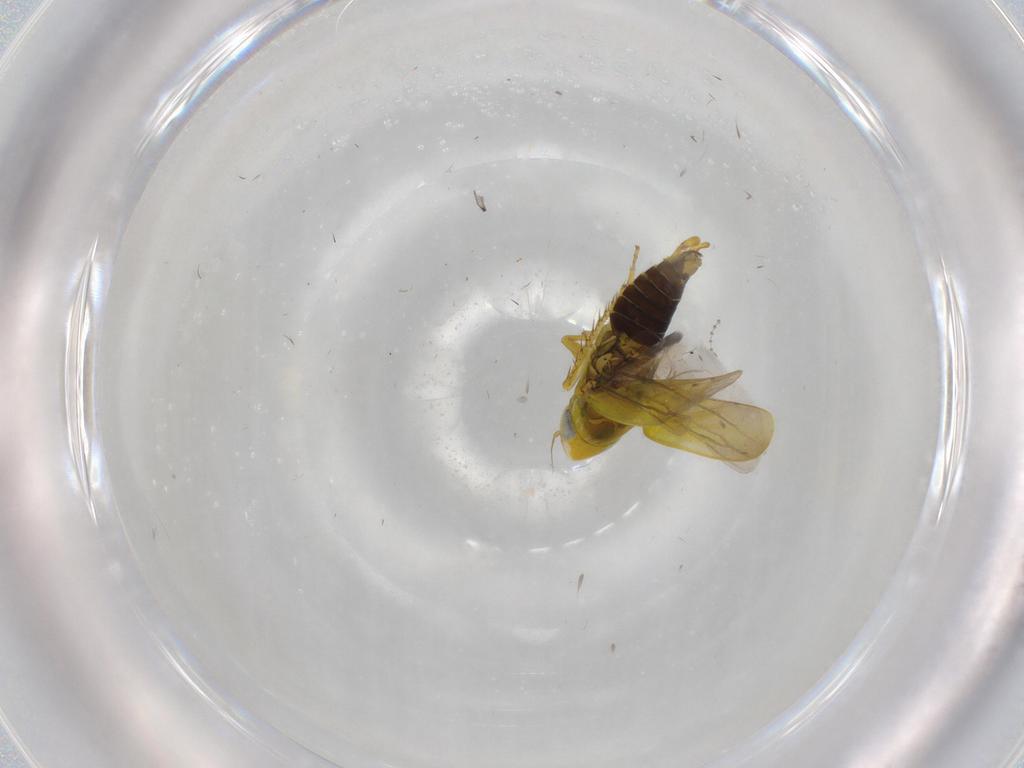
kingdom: Animalia
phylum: Arthropoda
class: Insecta
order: Hemiptera
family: Cicadellidae
